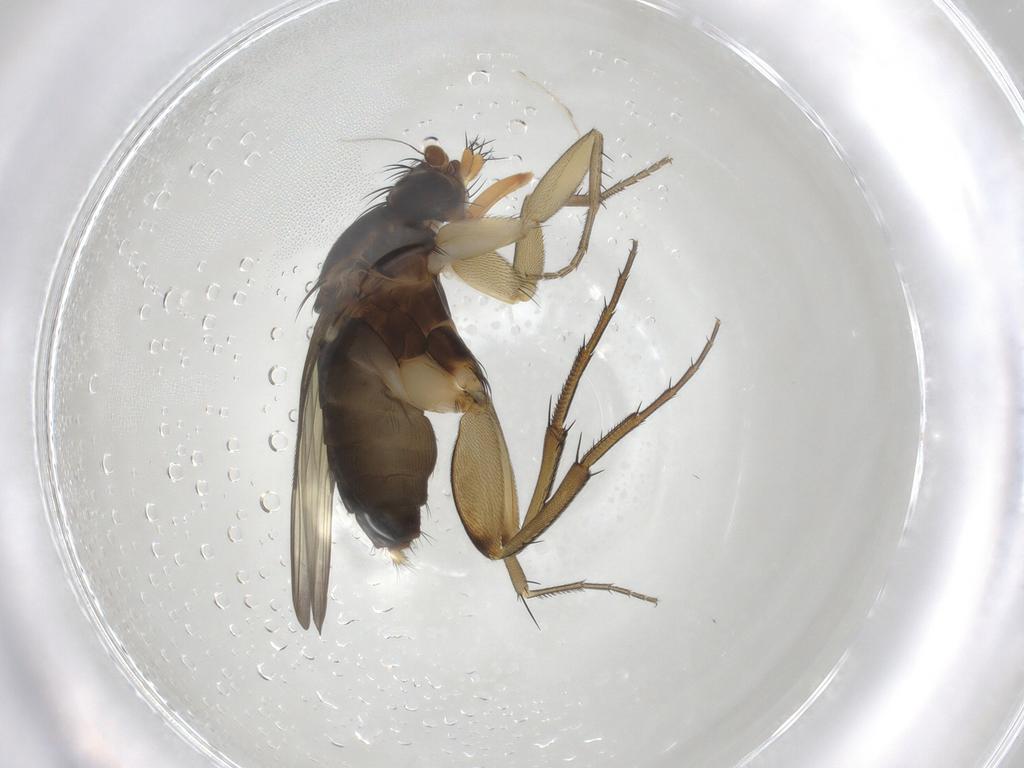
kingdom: Animalia
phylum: Arthropoda
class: Insecta
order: Diptera
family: Phoridae
